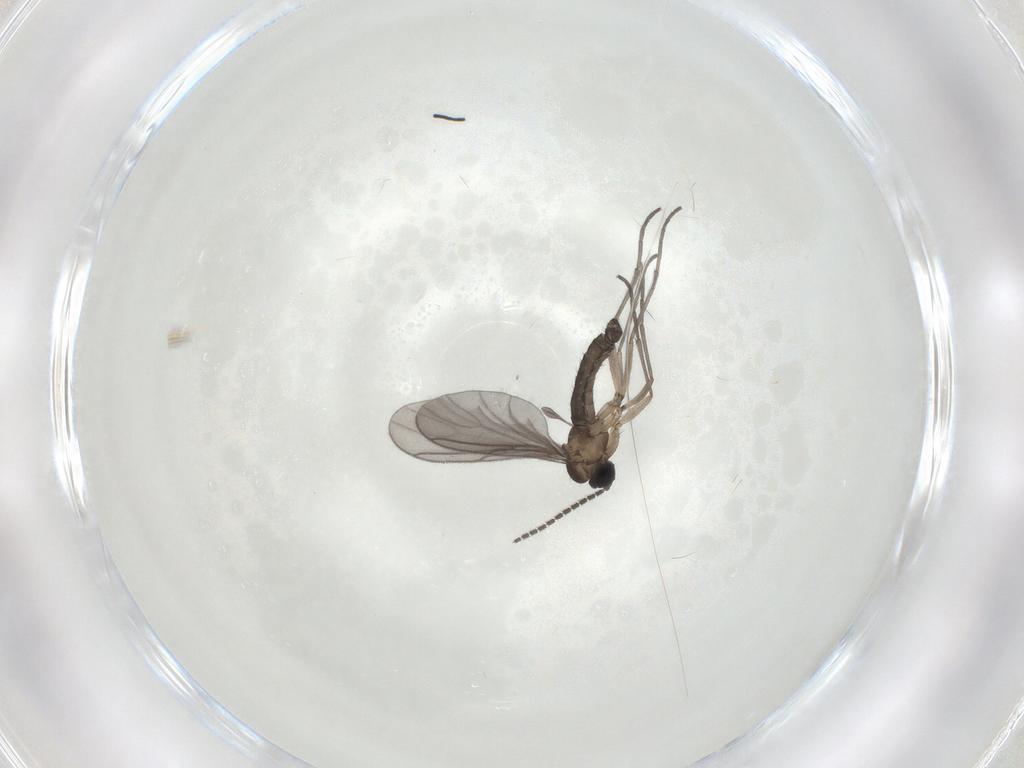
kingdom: Animalia
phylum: Arthropoda
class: Insecta
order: Diptera
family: Sciaridae
